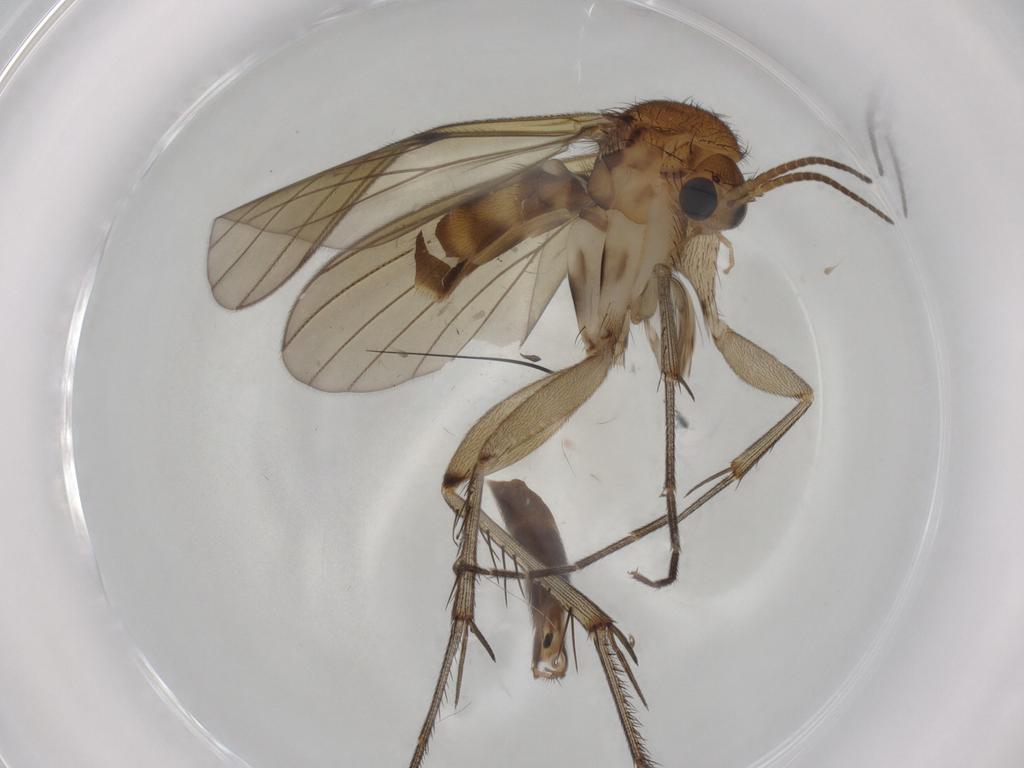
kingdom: Animalia
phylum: Arthropoda
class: Insecta
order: Diptera
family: Mycetophilidae
